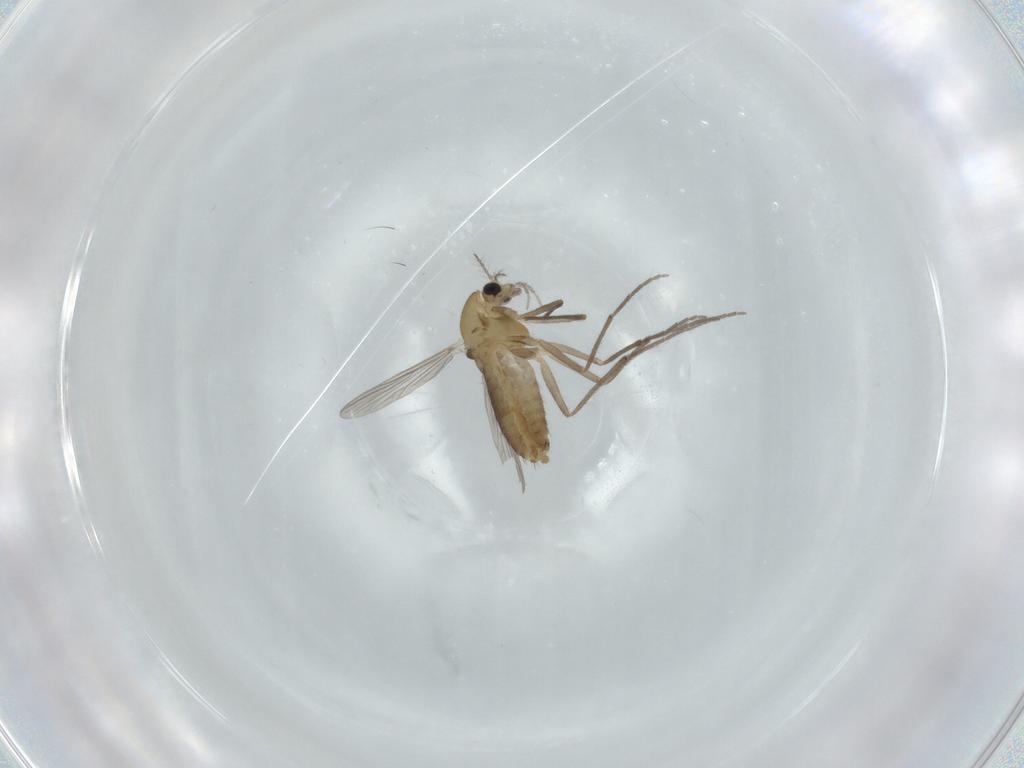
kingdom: Animalia
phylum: Arthropoda
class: Insecta
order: Diptera
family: Chironomidae
